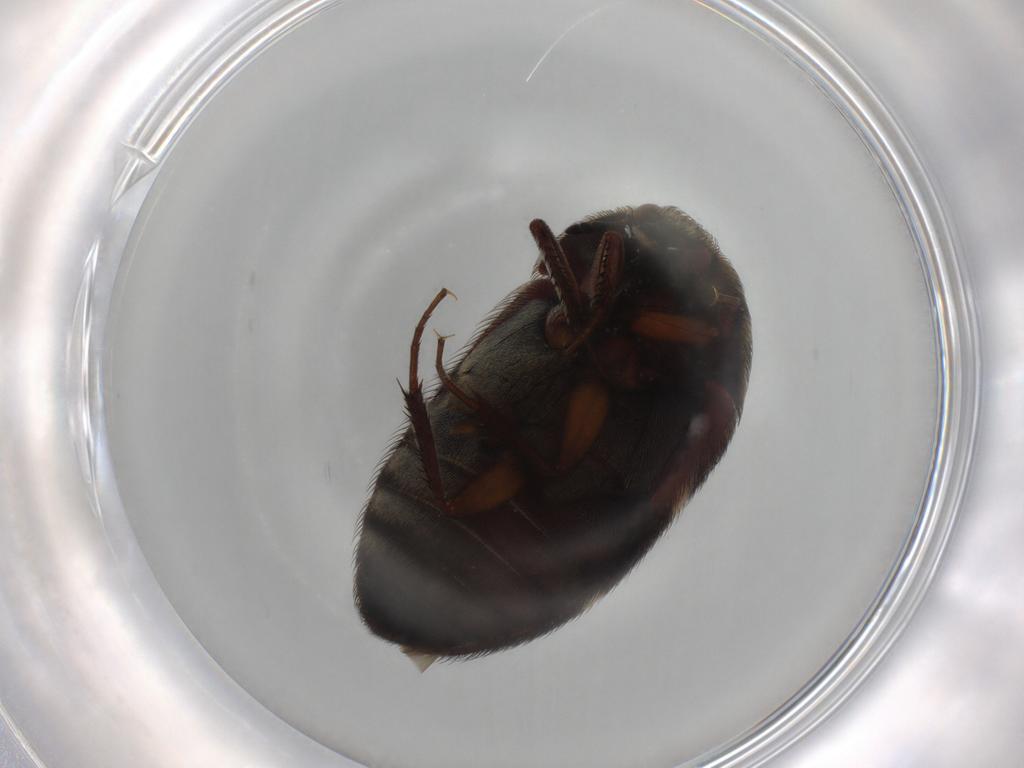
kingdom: Animalia
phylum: Arthropoda
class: Insecta
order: Coleoptera
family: Dermestidae
